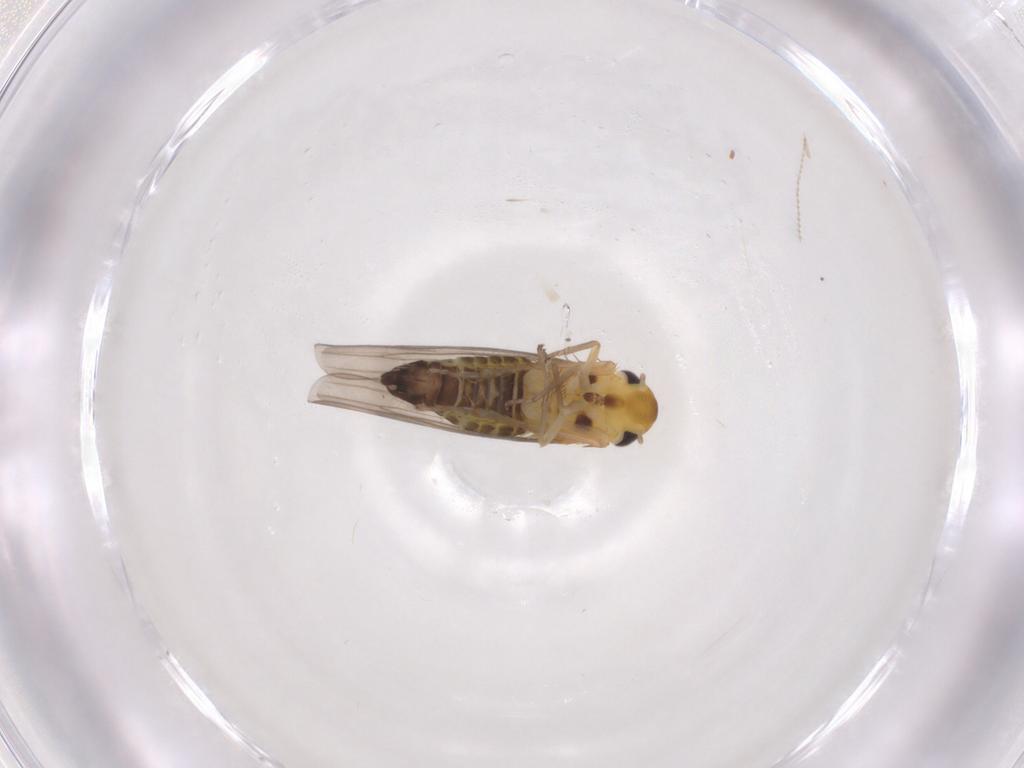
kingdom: Animalia
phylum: Arthropoda
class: Insecta
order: Hemiptera
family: Cicadellidae
